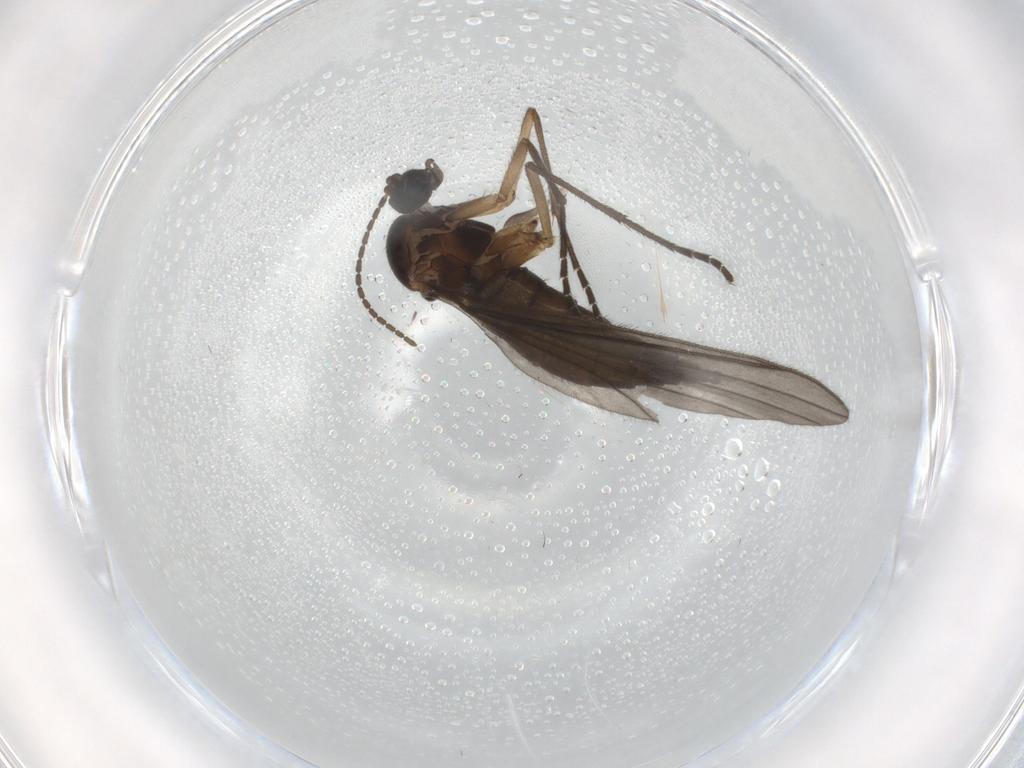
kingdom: Animalia
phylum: Arthropoda
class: Insecta
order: Diptera
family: Sciaridae
